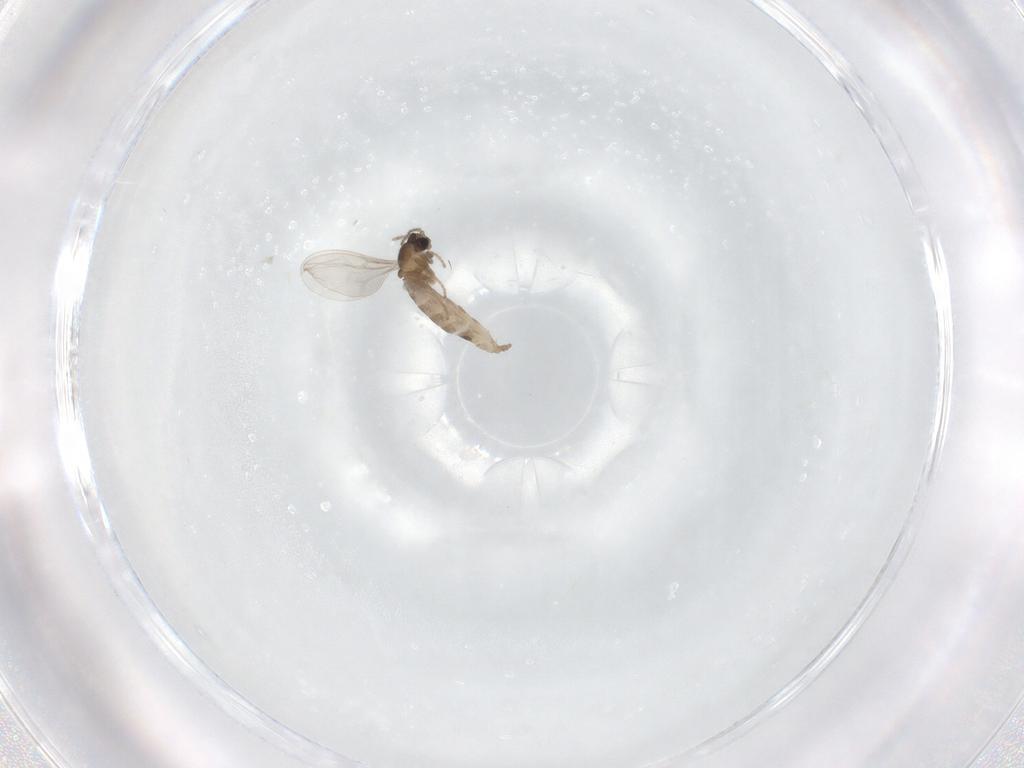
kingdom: Animalia
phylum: Arthropoda
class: Insecta
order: Diptera
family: Cecidomyiidae
